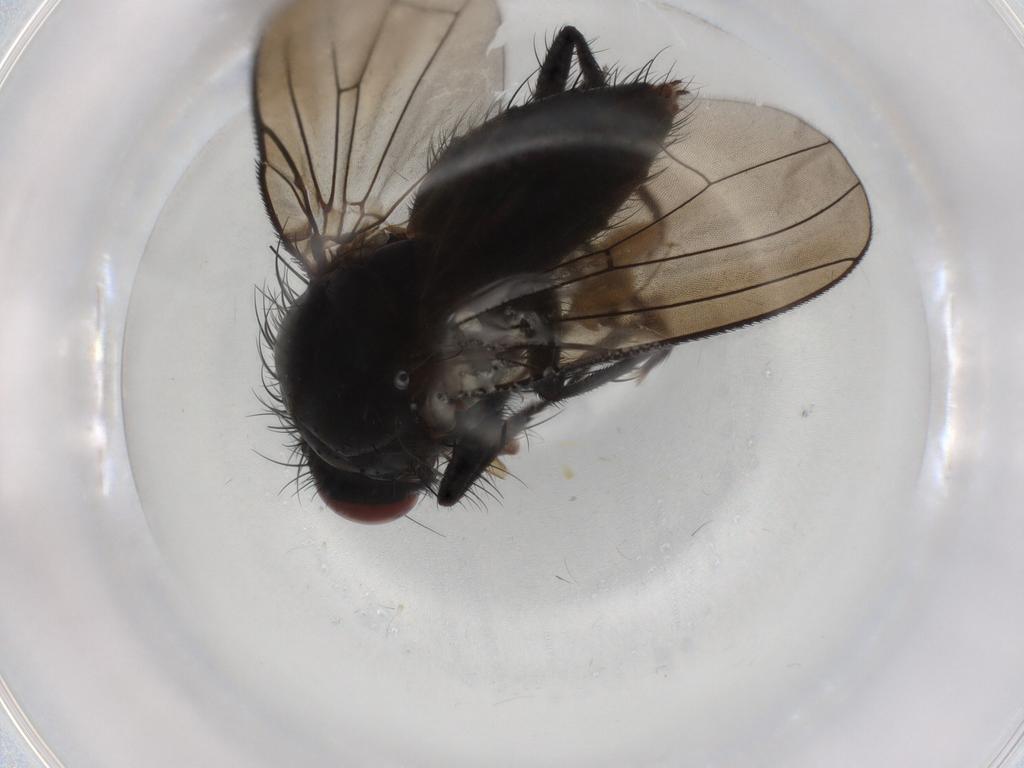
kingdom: Animalia
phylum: Arthropoda
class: Insecta
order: Diptera
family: Anthomyiidae
